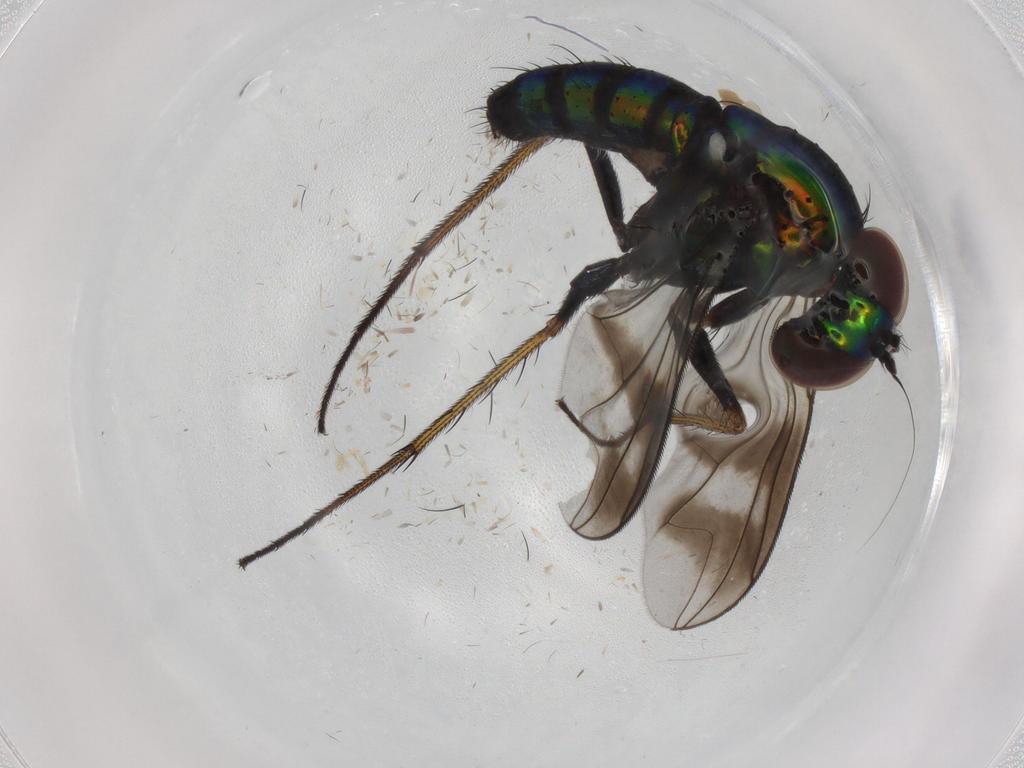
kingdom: Animalia
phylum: Arthropoda
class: Insecta
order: Diptera
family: Dolichopodidae
